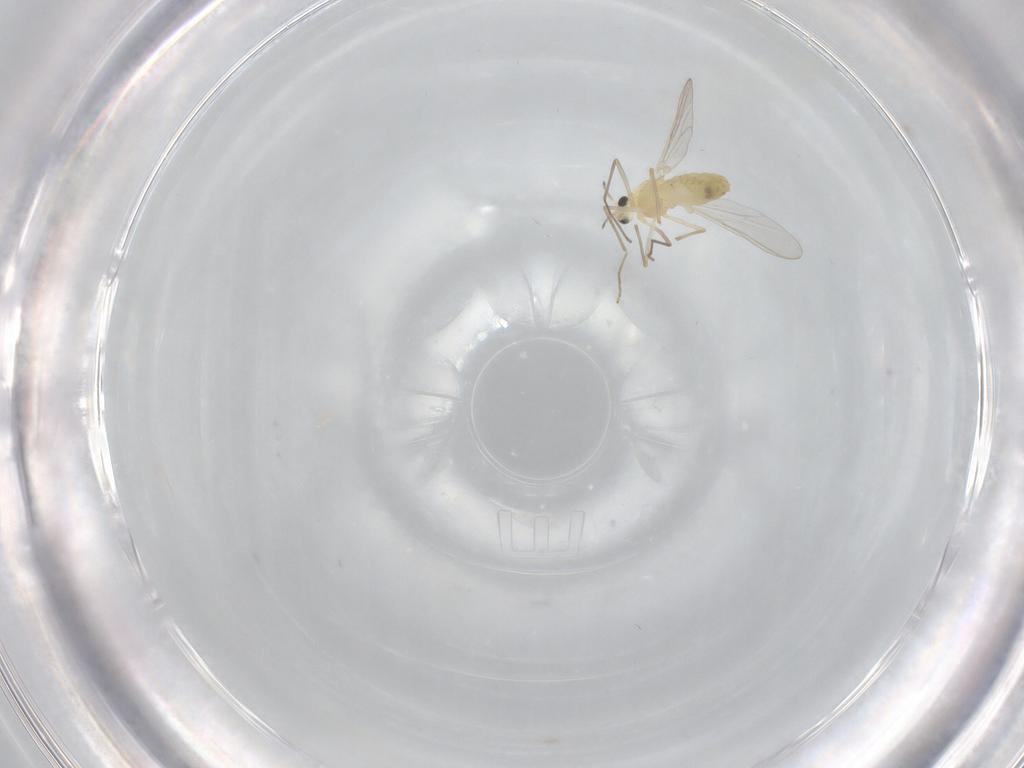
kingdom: Animalia
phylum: Arthropoda
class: Insecta
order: Diptera
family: Chironomidae
